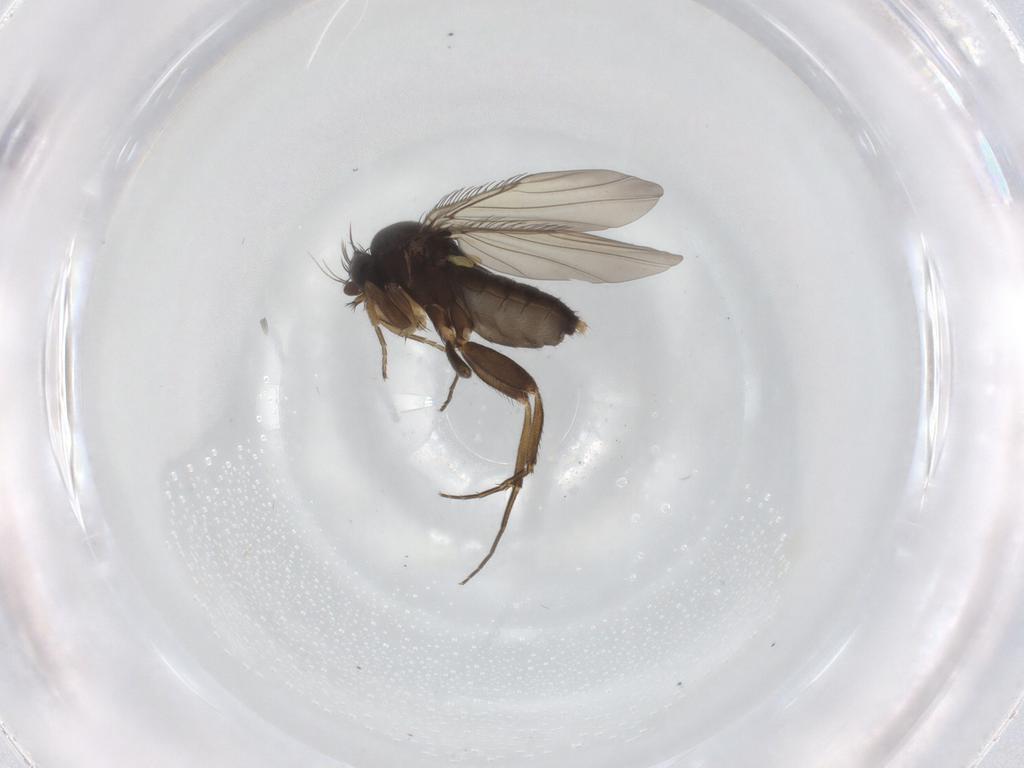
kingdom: Animalia
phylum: Arthropoda
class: Insecta
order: Diptera
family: Phoridae
